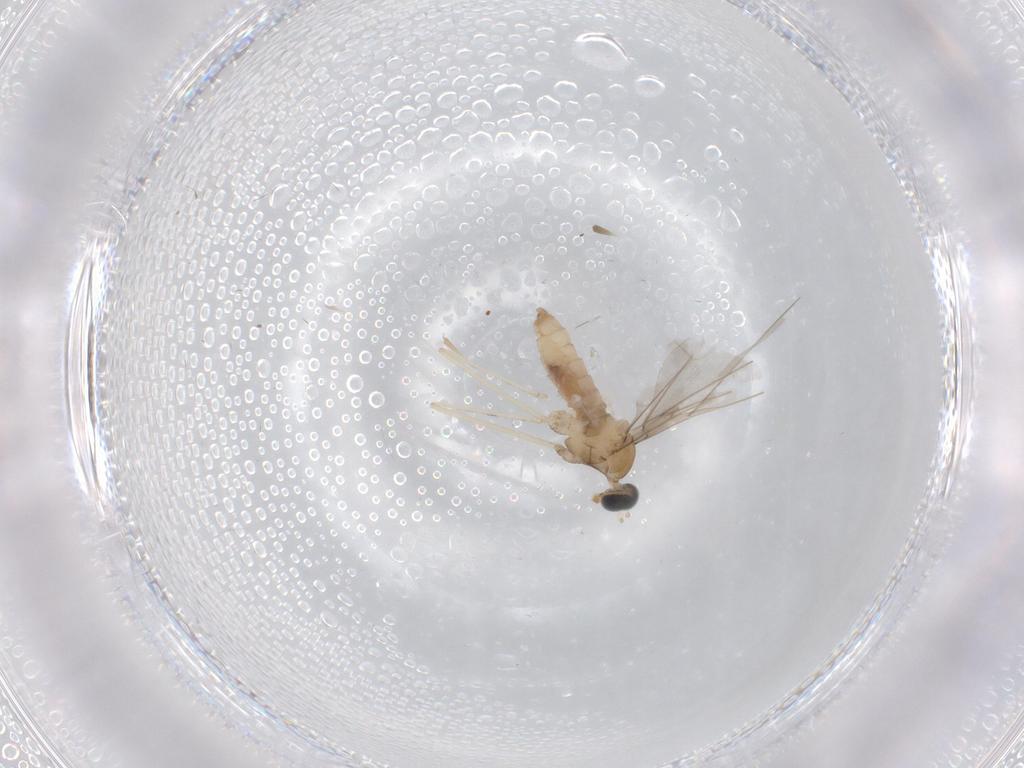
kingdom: Animalia
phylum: Arthropoda
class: Insecta
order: Diptera
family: Cecidomyiidae
